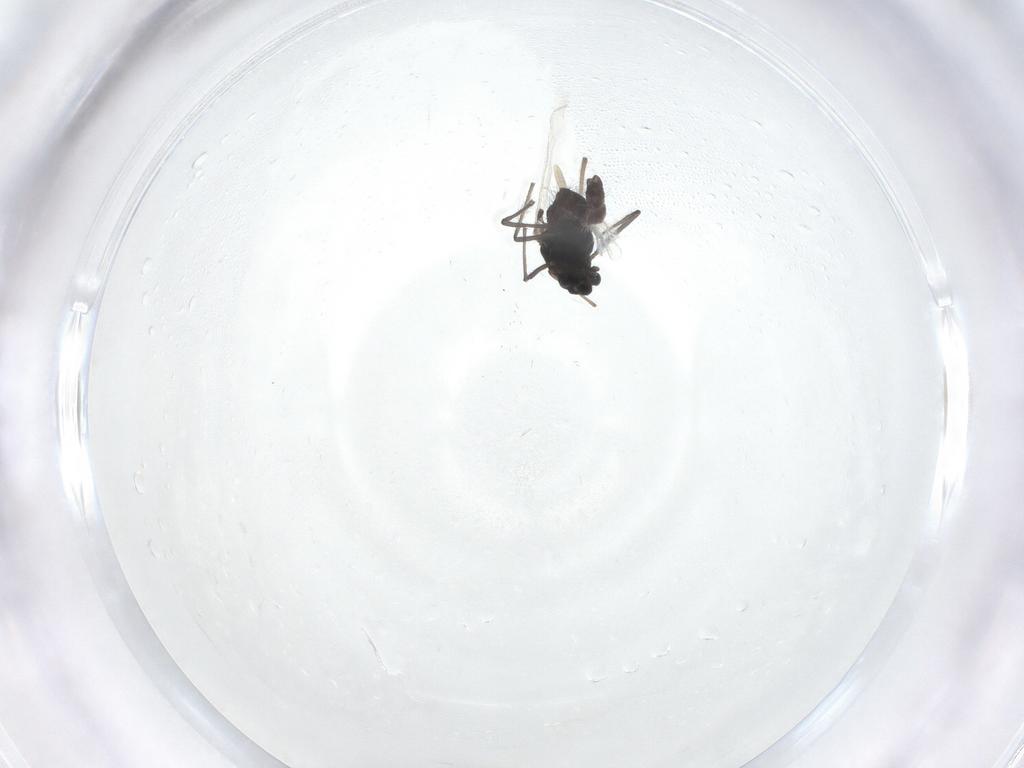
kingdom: Animalia
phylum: Arthropoda
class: Insecta
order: Diptera
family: Chironomidae
